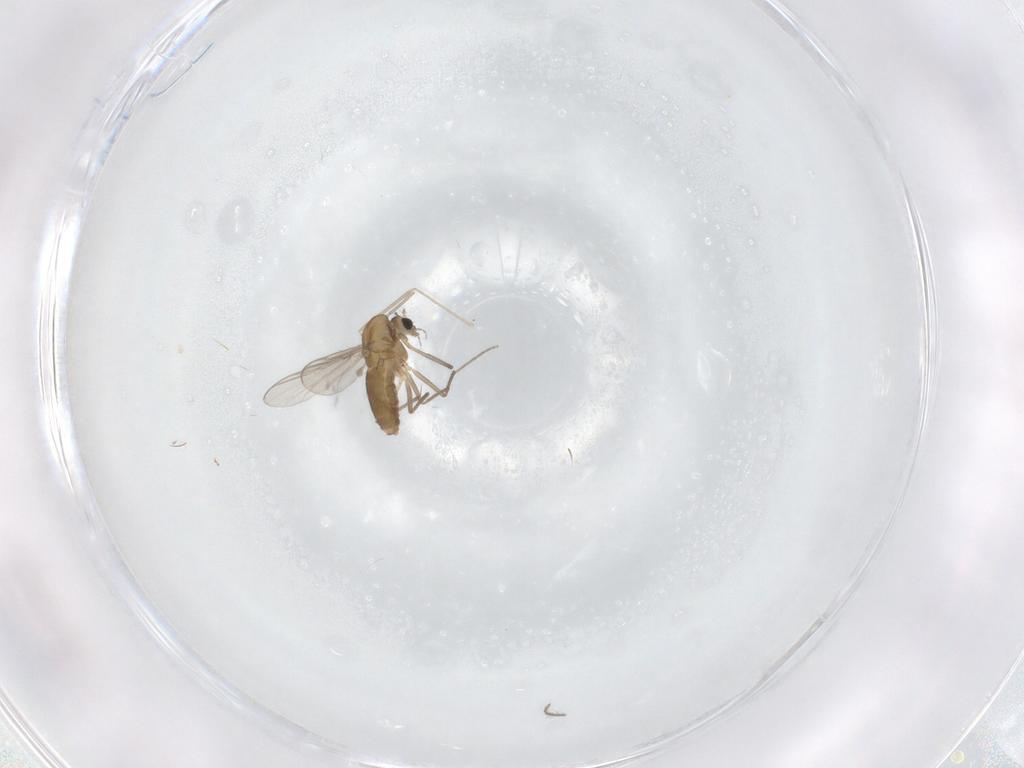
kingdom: Animalia
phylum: Arthropoda
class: Insecta
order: Diptera
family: Chironomidae
